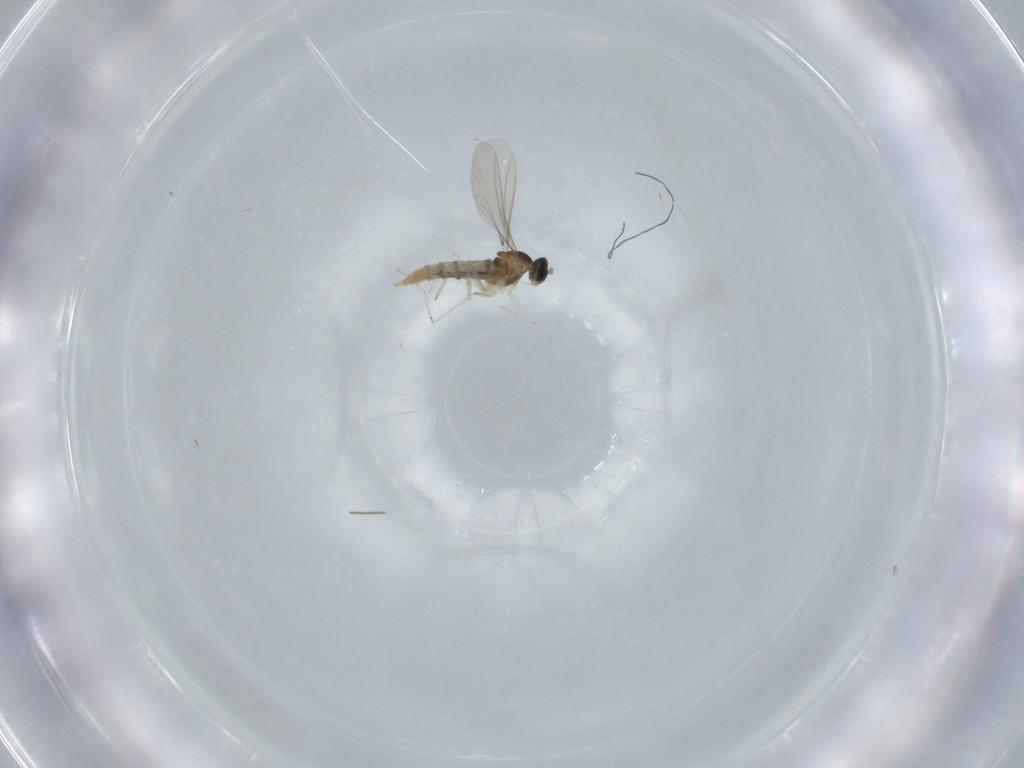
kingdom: Animalia
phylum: Arthropoda
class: Insecta
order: Diptera
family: Cecidomyiidae
